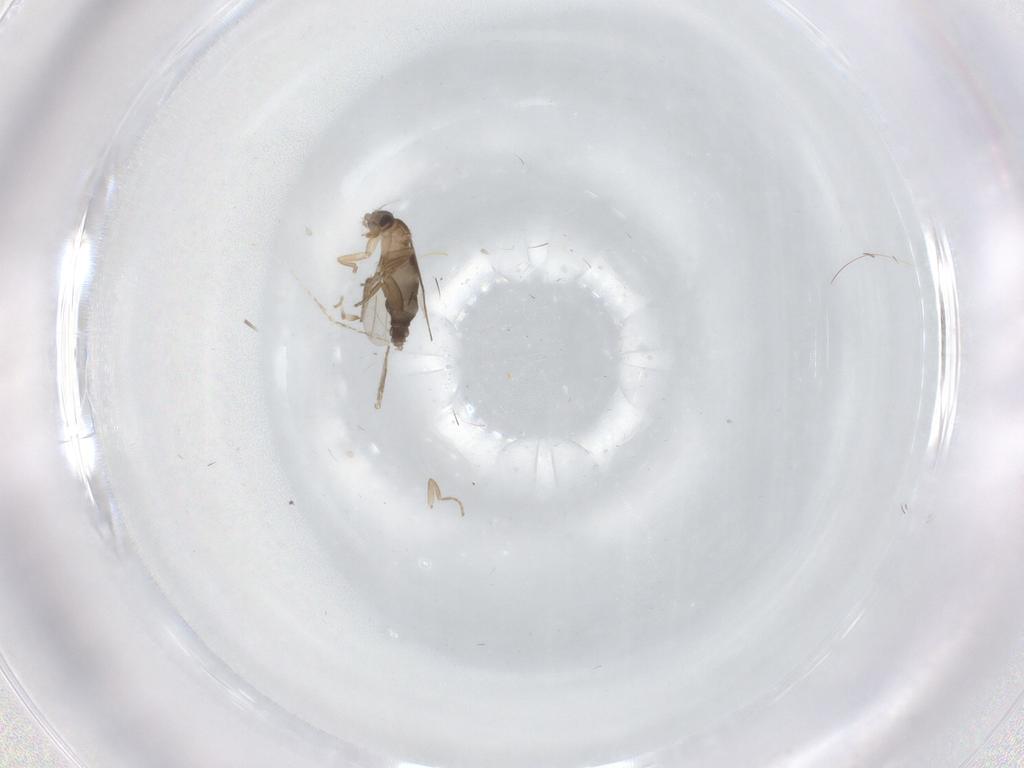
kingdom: Animalia
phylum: Arthropoda
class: Insecta
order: Diptera
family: Cecidomyiidae
